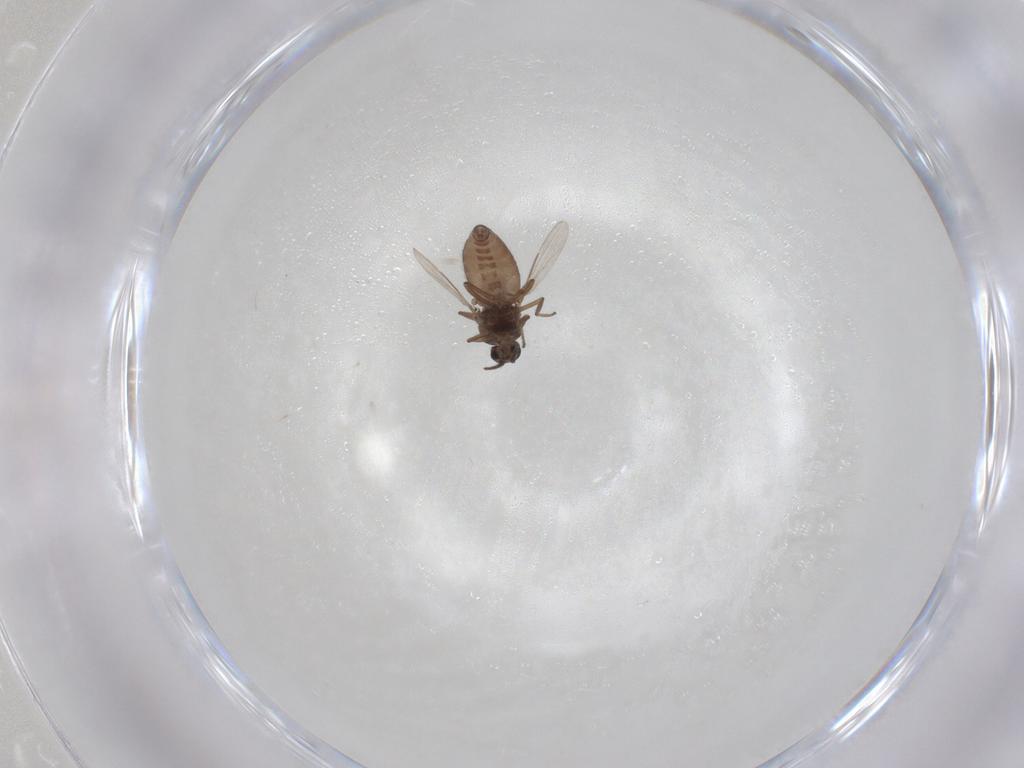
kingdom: Animalia
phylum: Arthropoda
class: Insecta
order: Diptera
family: Ceratopogonidae
